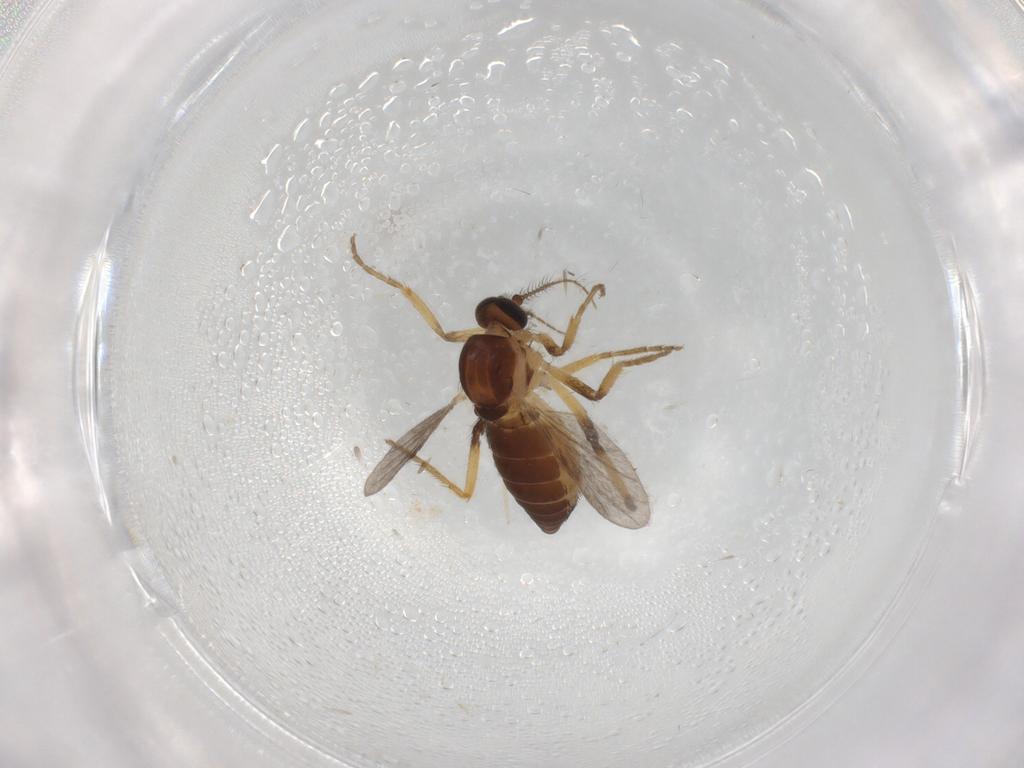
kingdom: Animalia
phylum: Arthropoda
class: Insecta
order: Diptera
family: Ceratopogonidae
